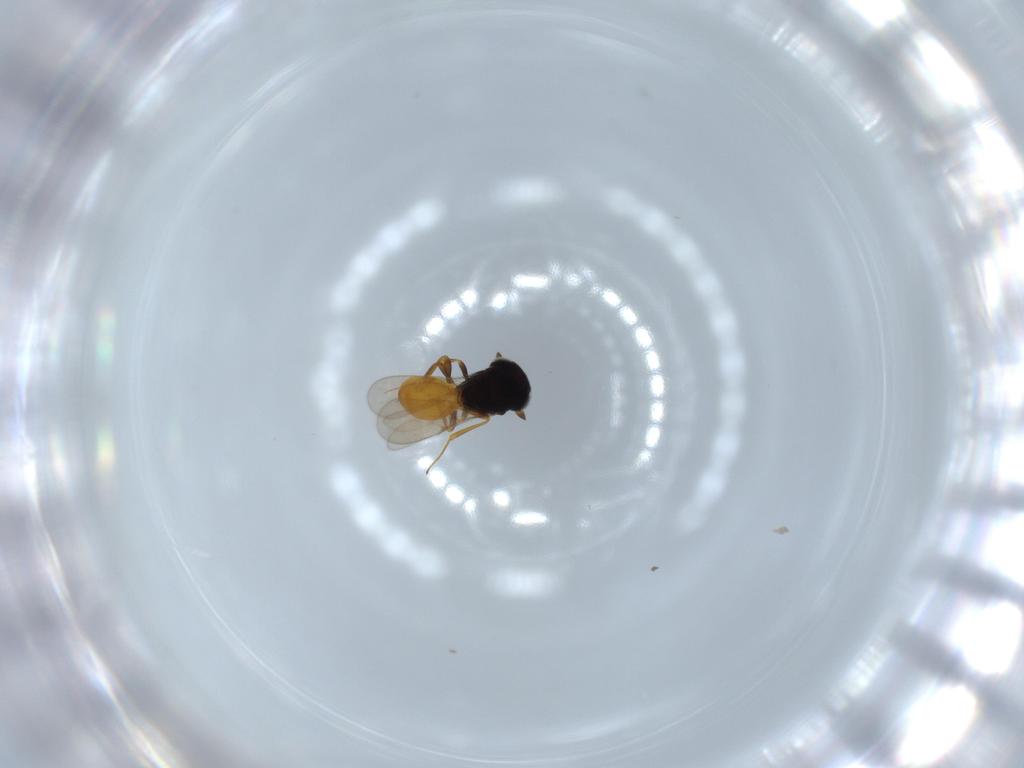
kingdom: Animalia
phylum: Arthropoda
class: Insecta
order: Hymenoptera
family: Scelionidae
